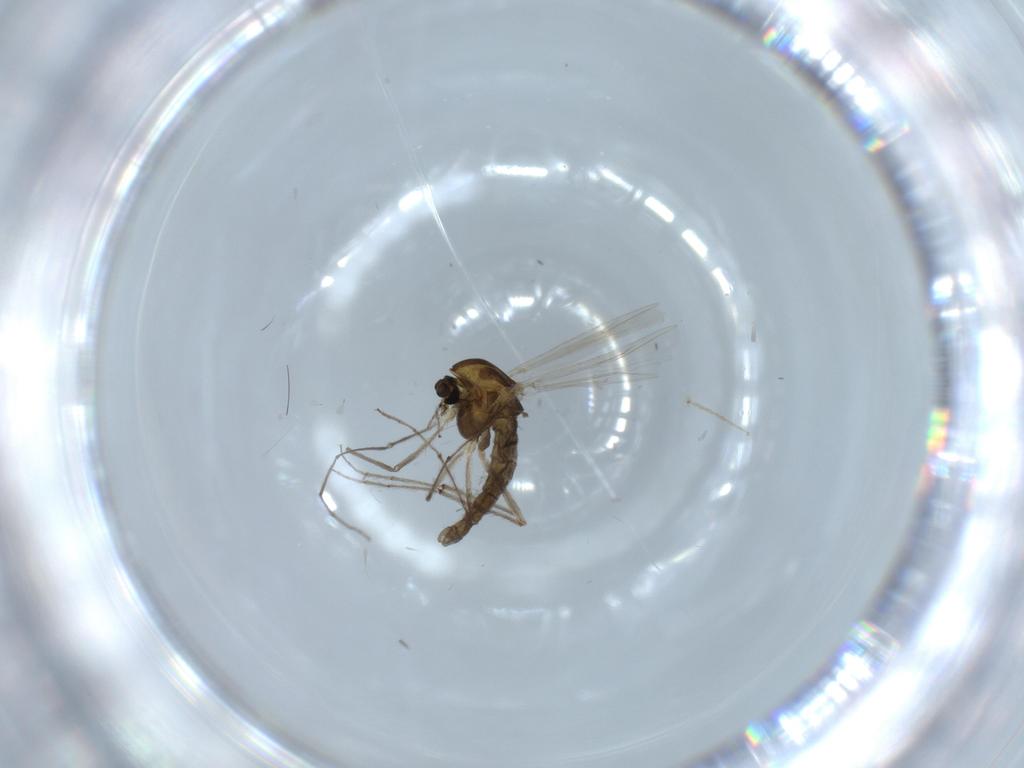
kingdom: Animalia
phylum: Arthropoda
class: Insecta
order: Diptera
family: Chironomidae
